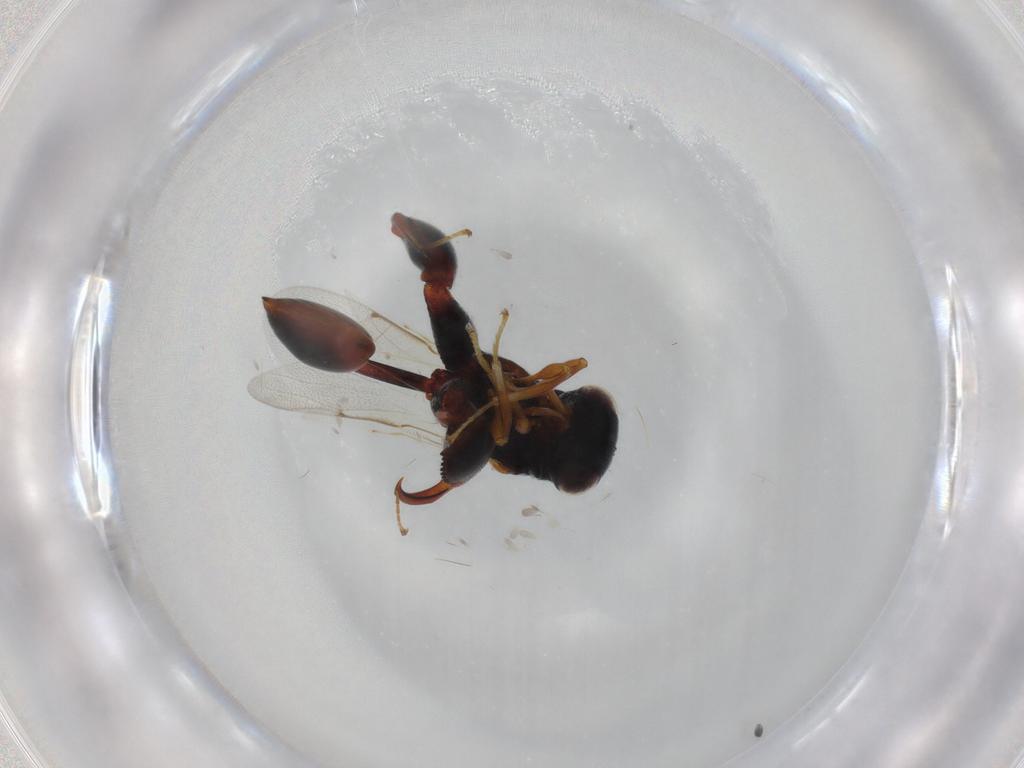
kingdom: Animalia
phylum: Arthropoda
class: Insecta
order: Hymenoptera
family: Chalcididae
